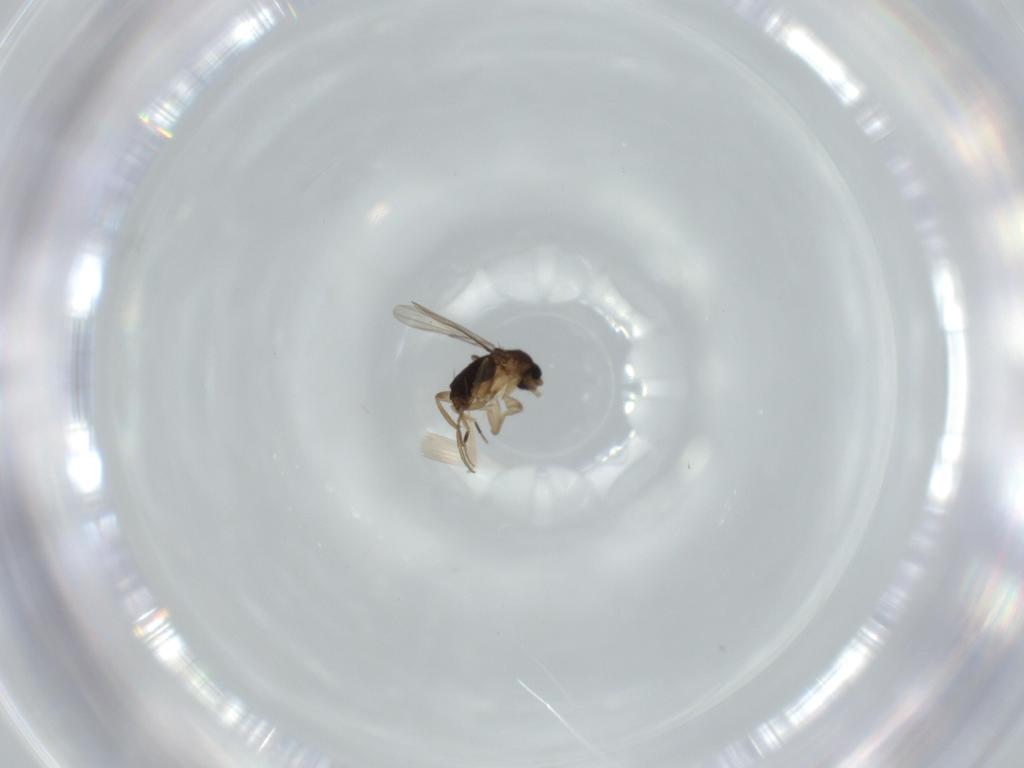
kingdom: Animalia
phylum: Arthropoda
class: Insecta
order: Diptera
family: Phoridae
